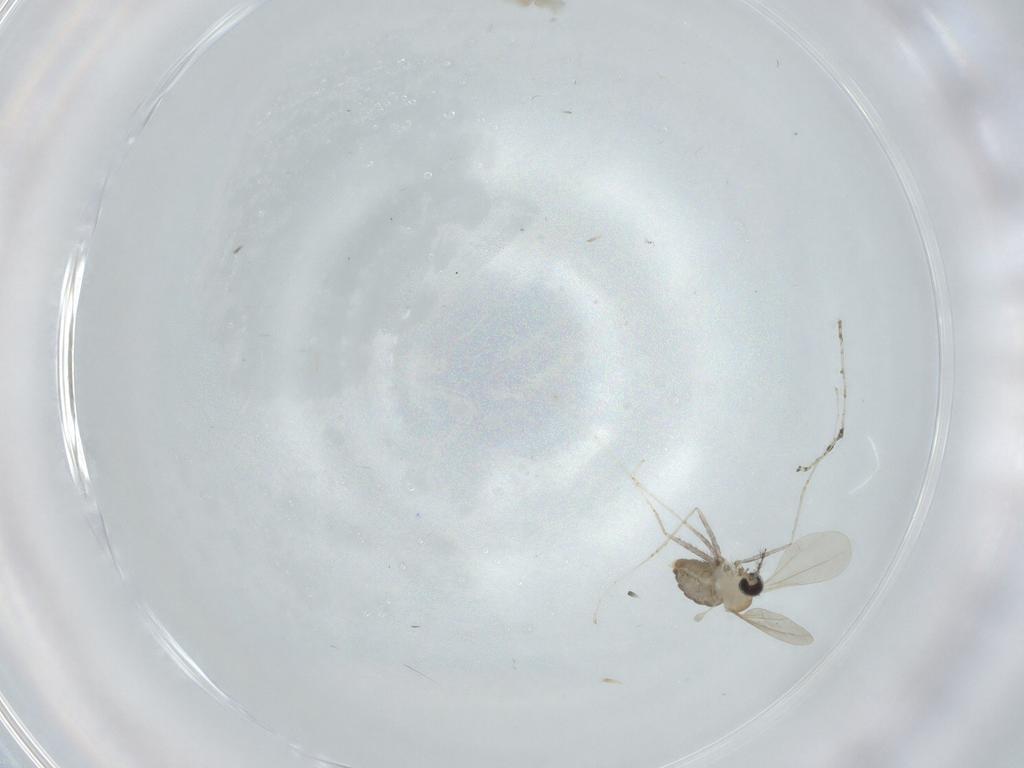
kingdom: Animalia
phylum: Arthropoda
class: Insecta
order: Diptera
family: Cecidomyiidae
